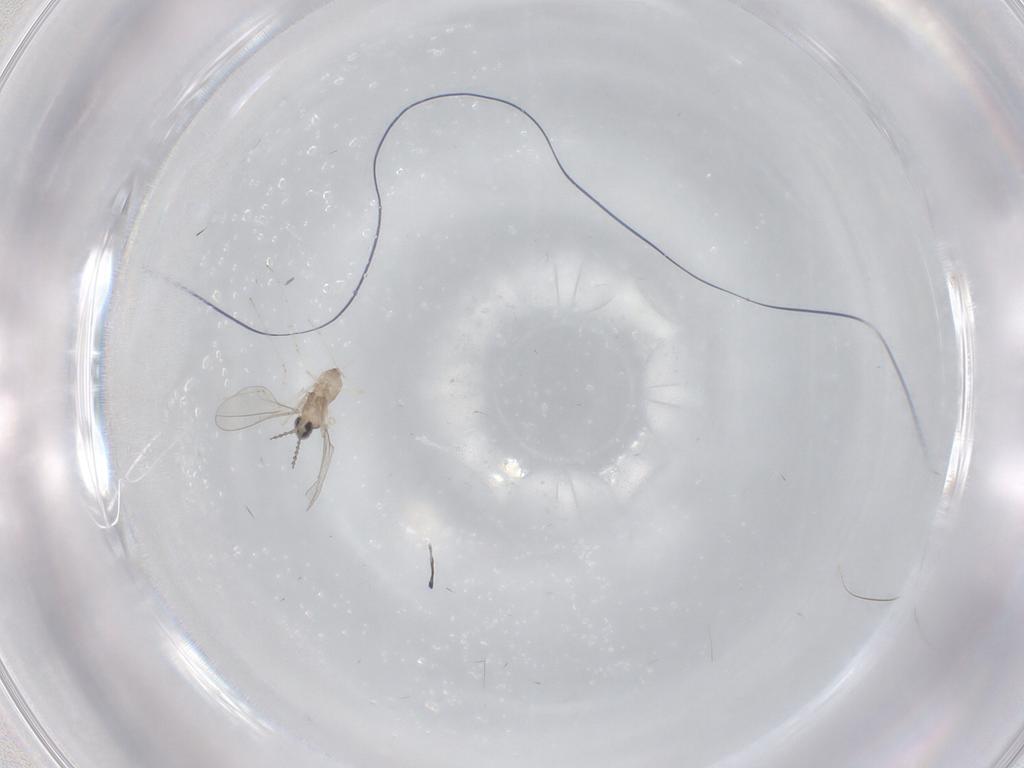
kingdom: Animalia
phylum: Arthropoda
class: Insecta
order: Diptera
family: Cecidomyiidae
